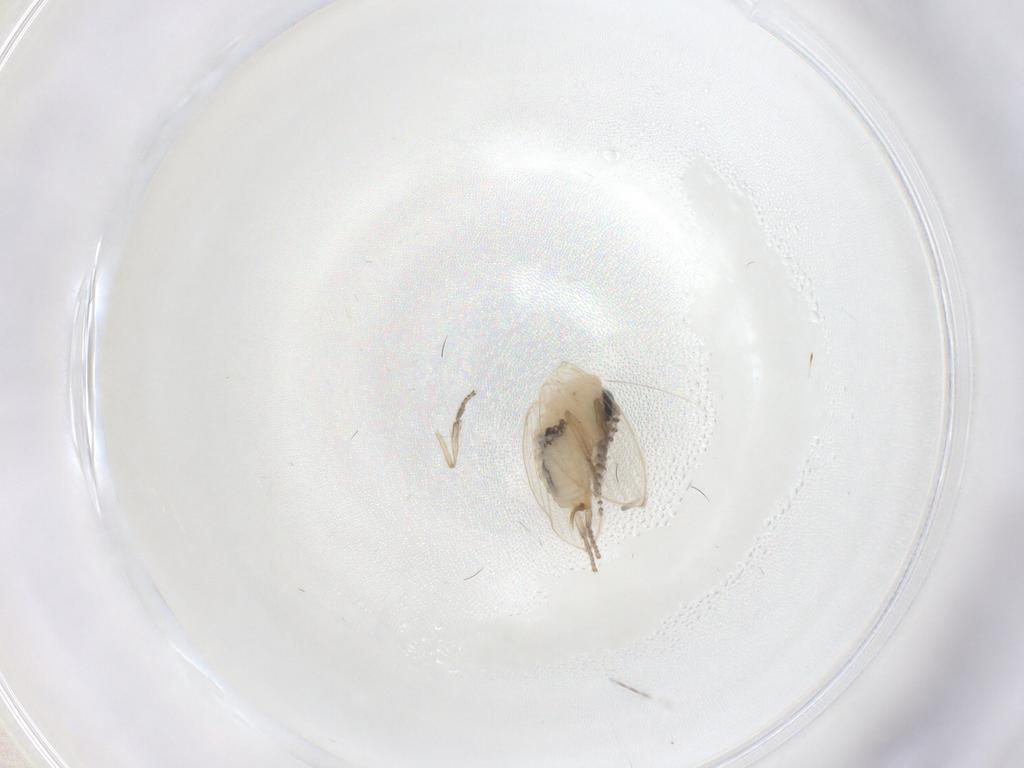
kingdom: Animalia
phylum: Arthropoda
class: Insecta
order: Diptera
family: Psychodidae
